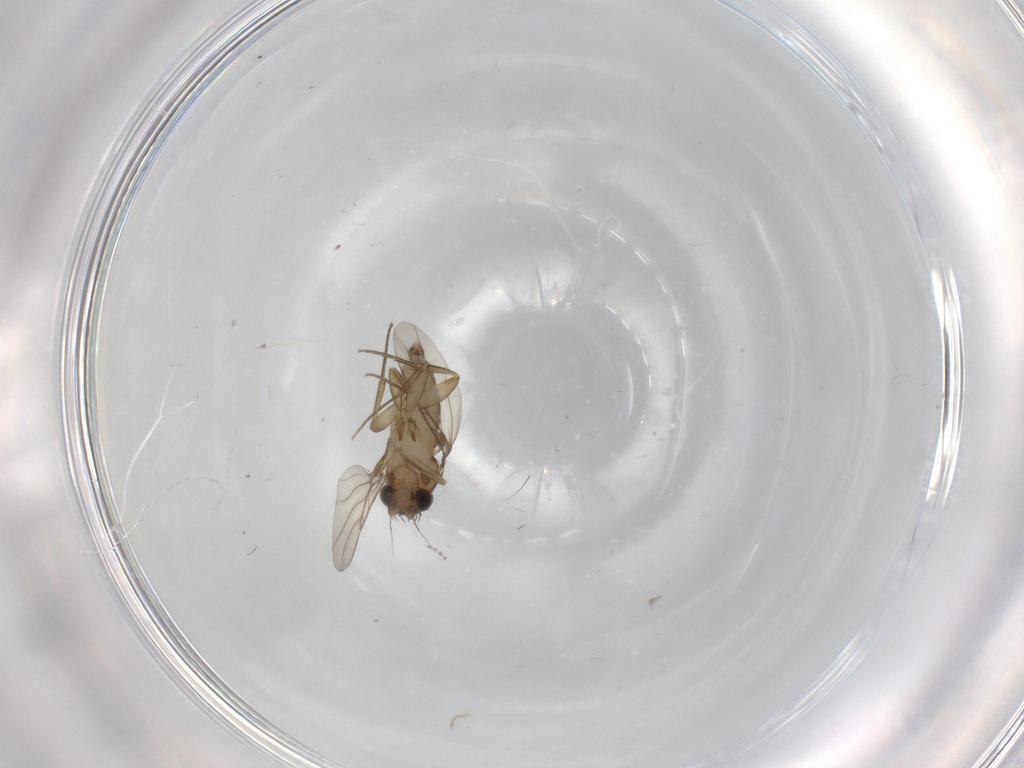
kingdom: Animalia
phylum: Arthropoda
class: Insecta
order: Diptera
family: Phoridae
